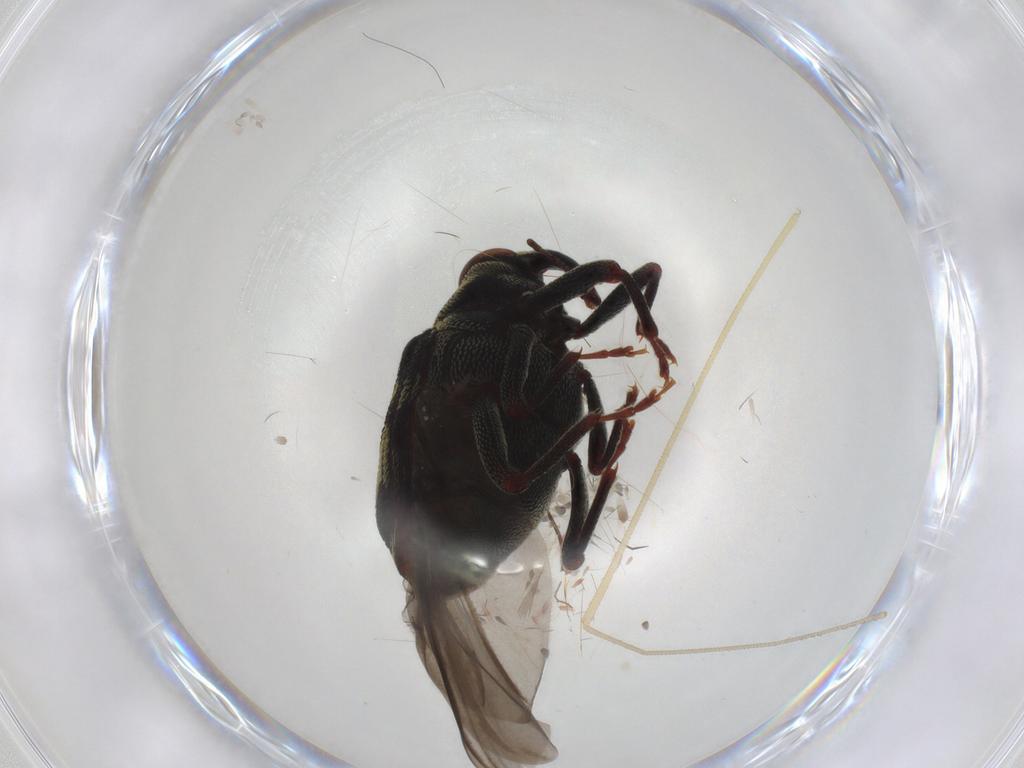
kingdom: Animalia
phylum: Arthropoda
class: Insecta
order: Coleoptera
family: Curculionidae
